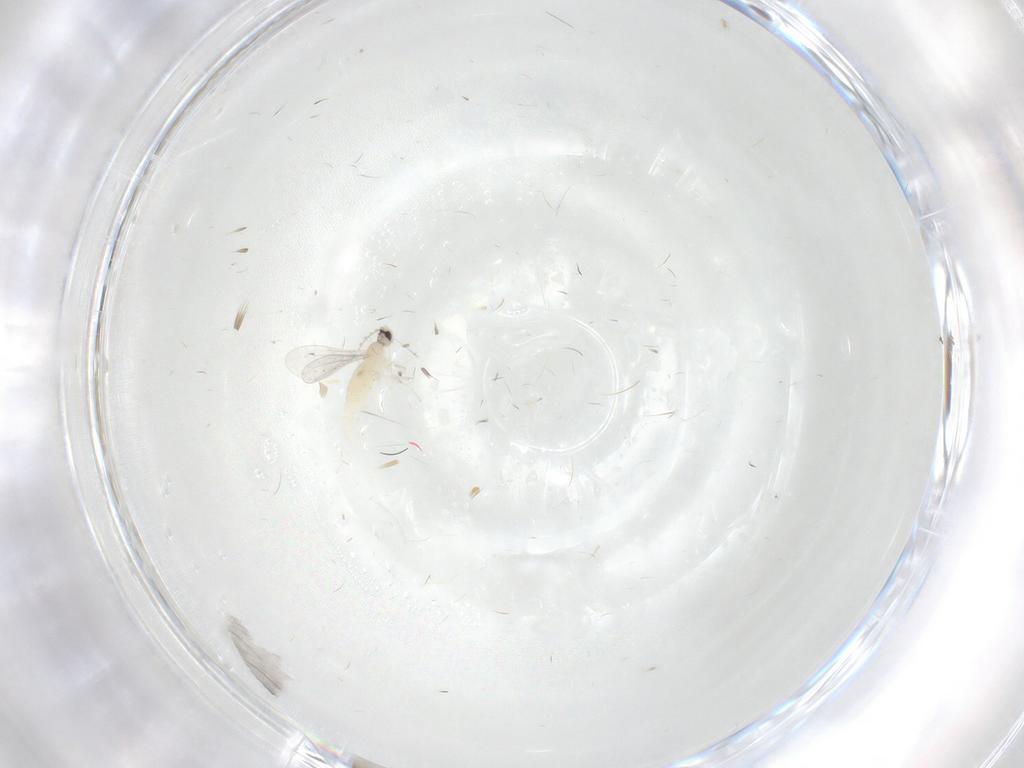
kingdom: Animalia
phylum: Arthropoda
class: Insecta
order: Diptera
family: Cecidomyiidae
